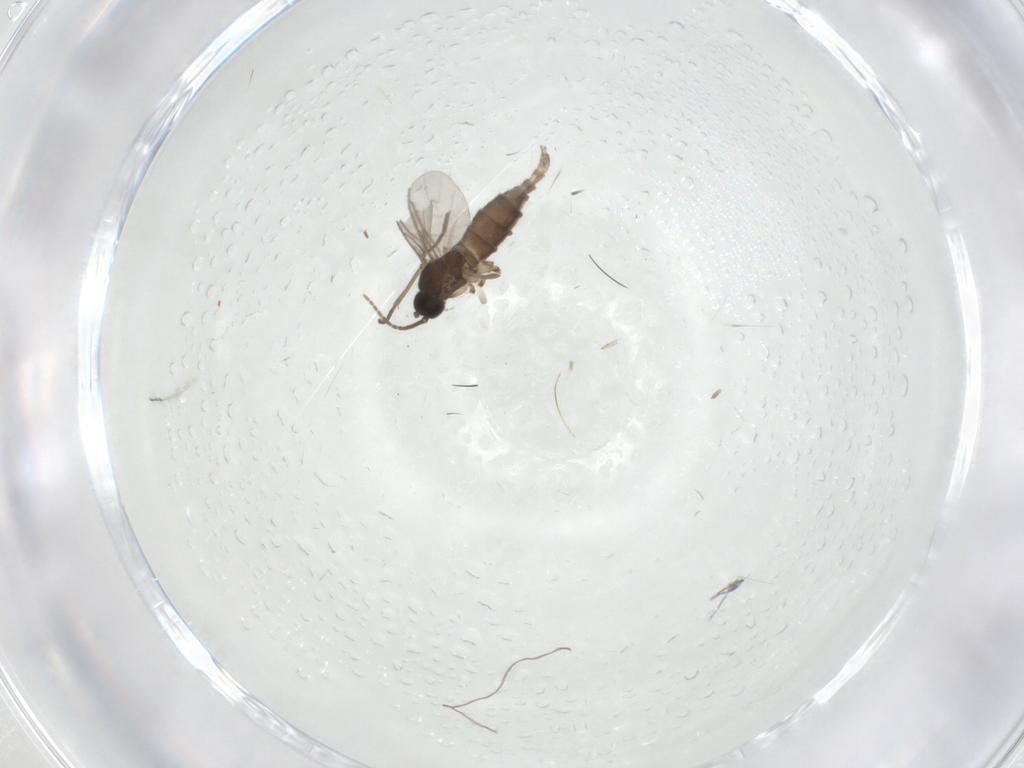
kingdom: Animalia
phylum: Arthropoda
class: Insecta
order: Diptera
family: Sciaridae
